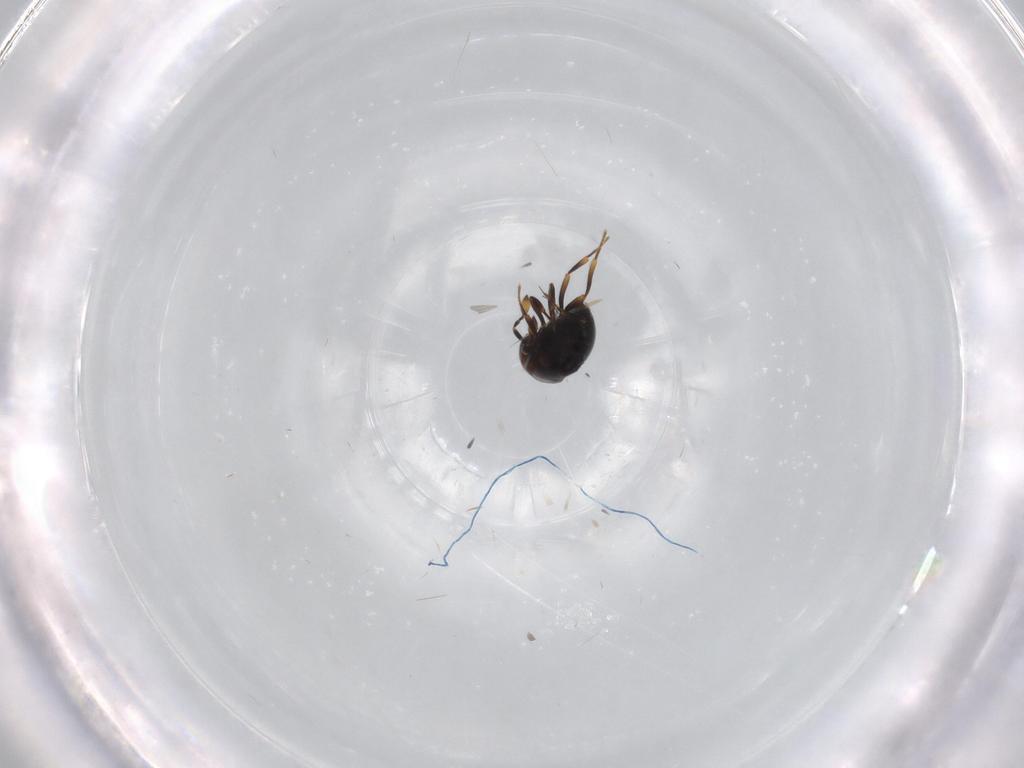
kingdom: Animalia
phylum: Arthropoda
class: Insecta
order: Hymenoptera
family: Scelionidae
